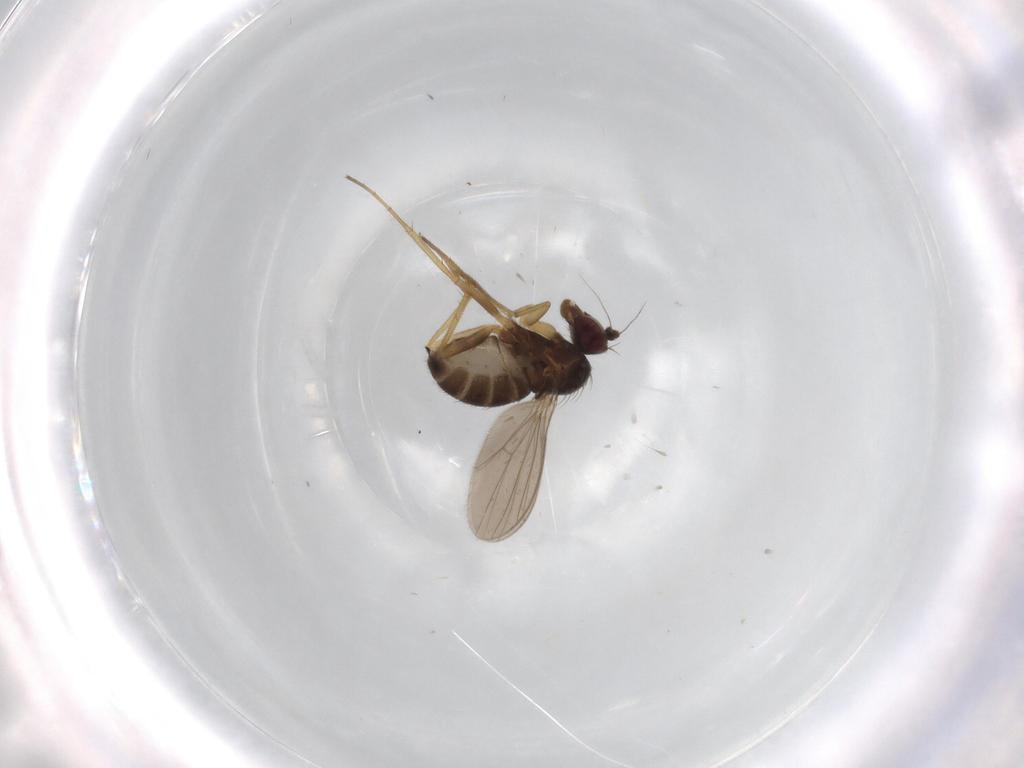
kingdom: Animalia
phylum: Arthropoda
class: Insecta
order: Diptera
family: Dolichopodidae
